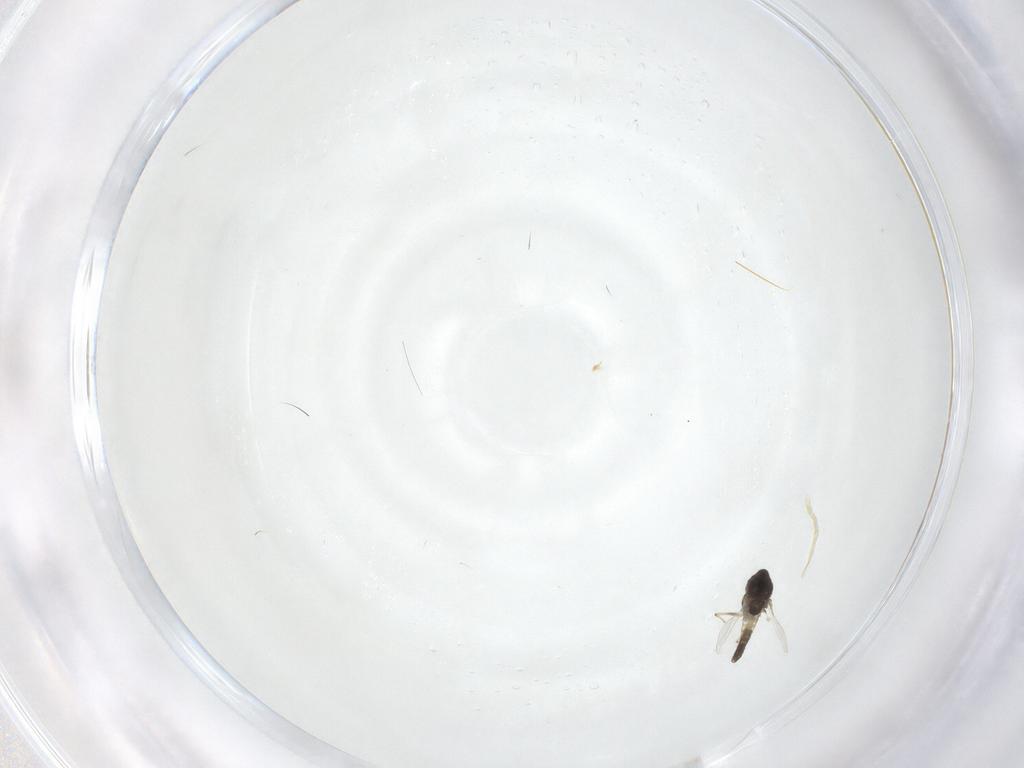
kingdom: Animalia
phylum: Arthropoda
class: Insecta
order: Diptera
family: Chironomidae
